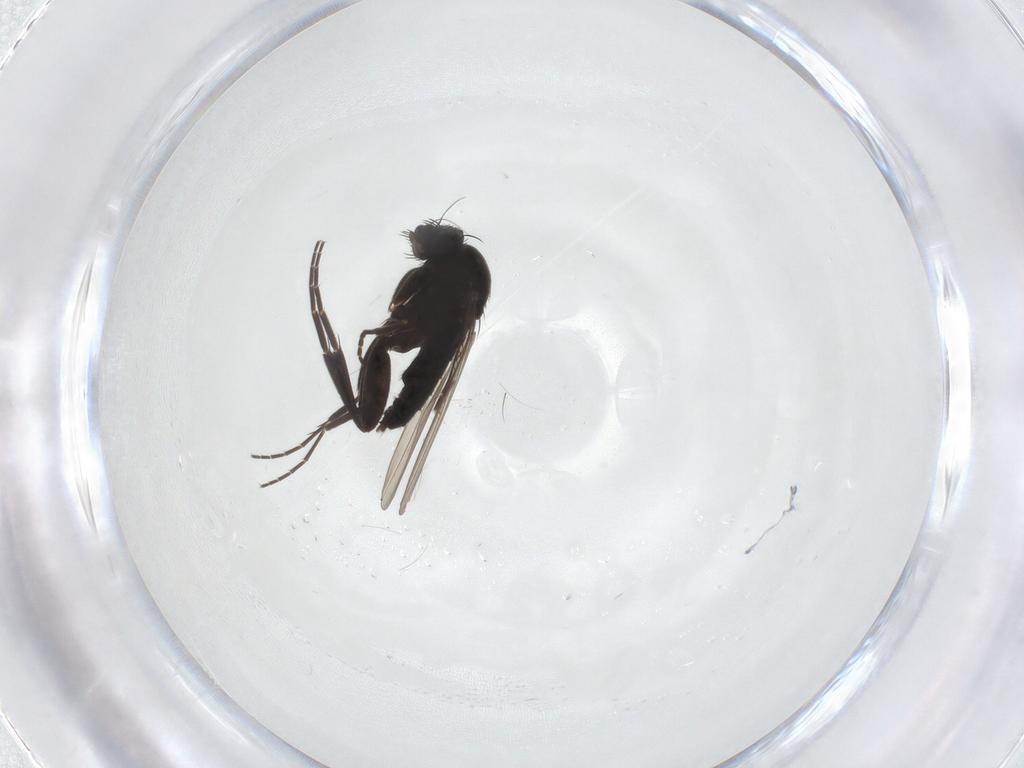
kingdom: Animalia
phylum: Arthropoda
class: Insecta
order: Diptera
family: Phoridae
